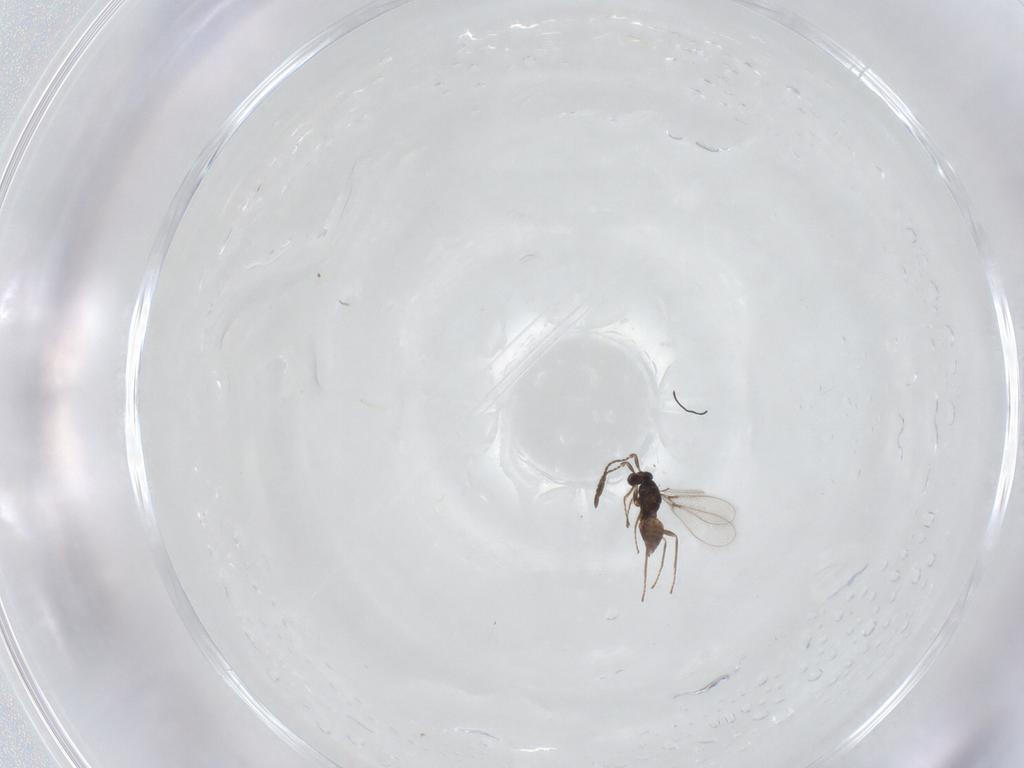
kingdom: Animalia
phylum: Arthropoda
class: Insecta
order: Hymenoptera
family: Mymaridae
